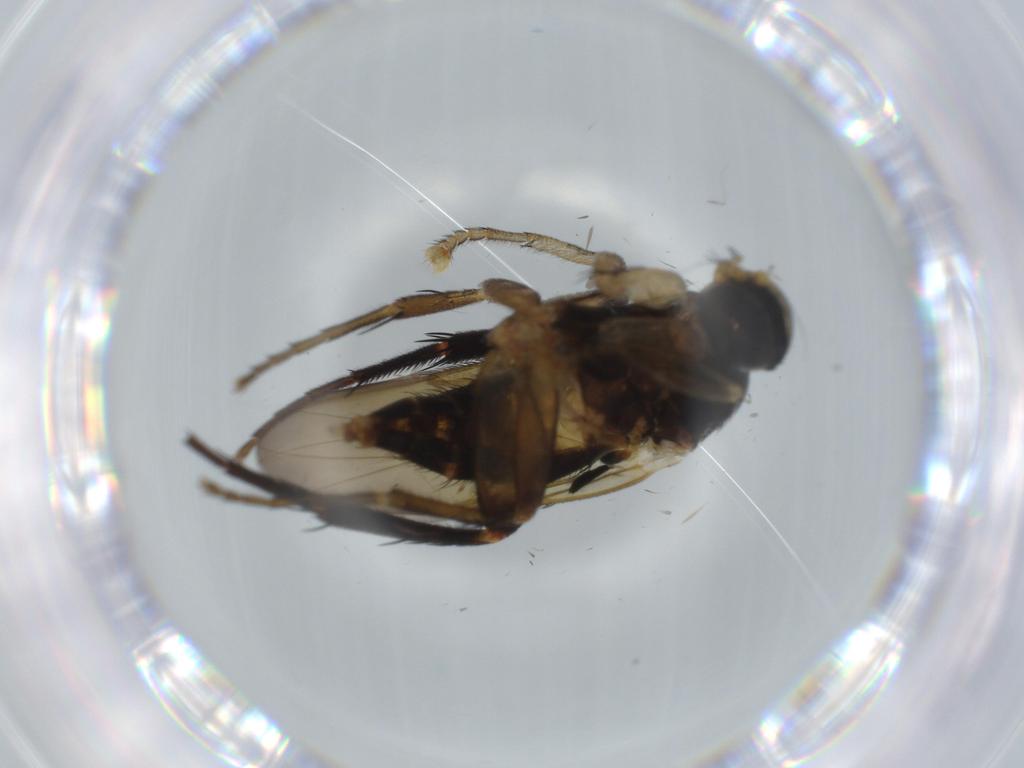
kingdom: Animalia
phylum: Arthropoda
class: Insecta
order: Diptera
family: Phoridae
